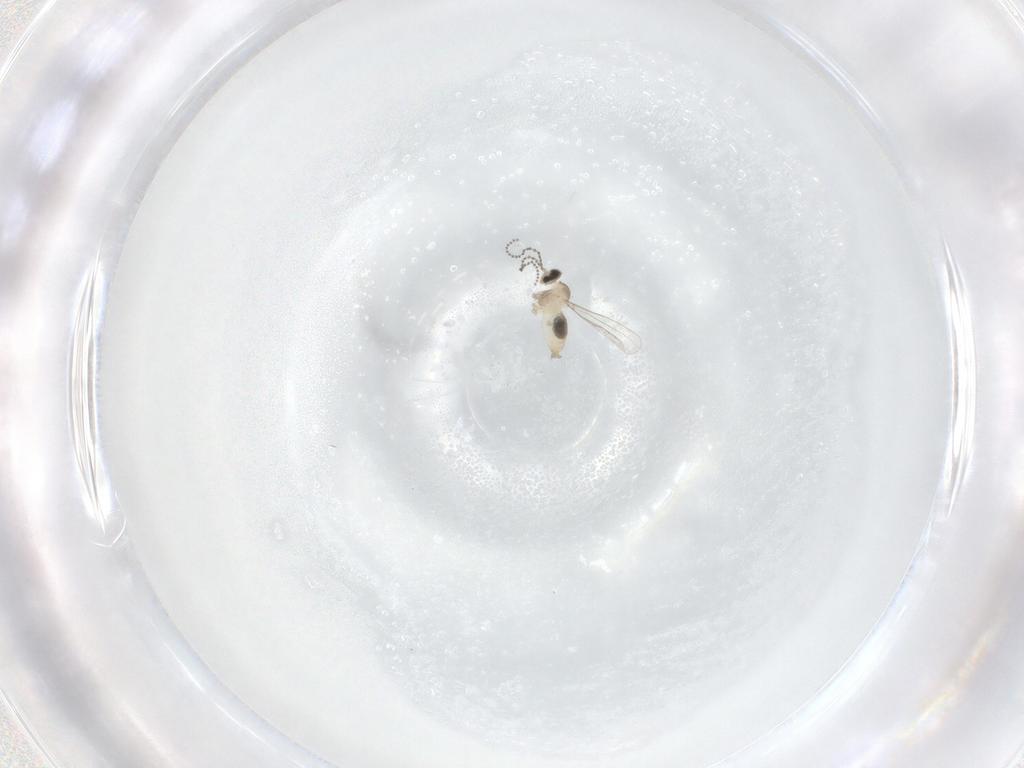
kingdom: Animalia
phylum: Arthropoda
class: Insecta
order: Diptera
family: Cecidomyiidae
